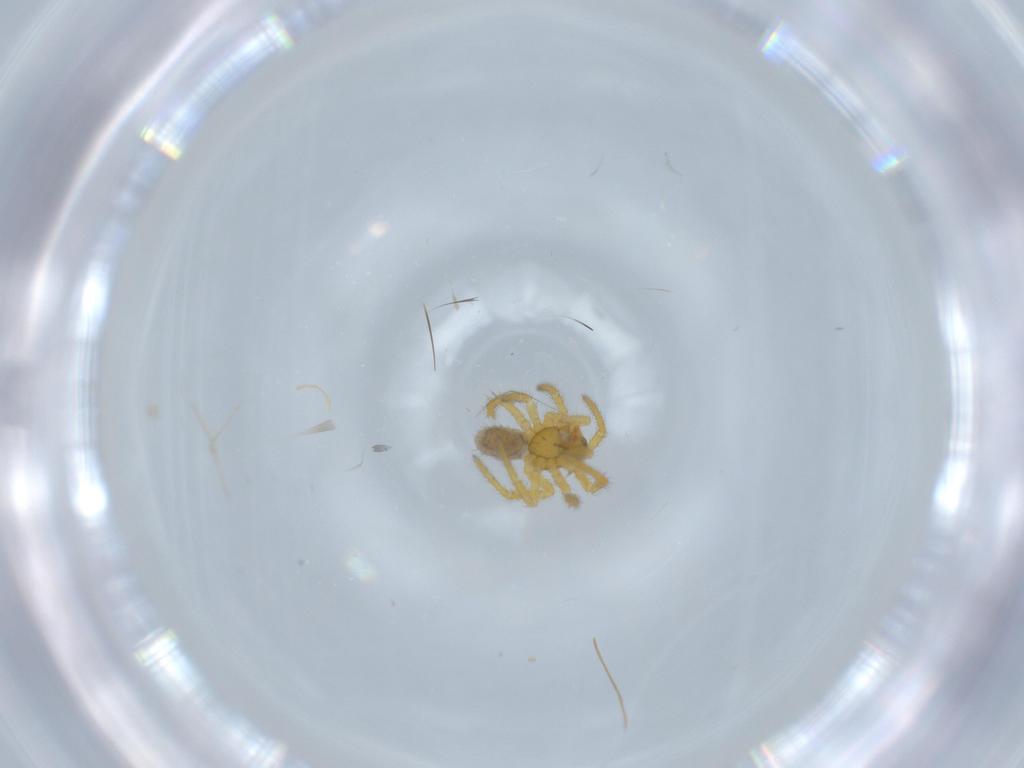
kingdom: Animalia
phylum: Arthropoda
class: Arachnida
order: Araneae
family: Theridiidae
